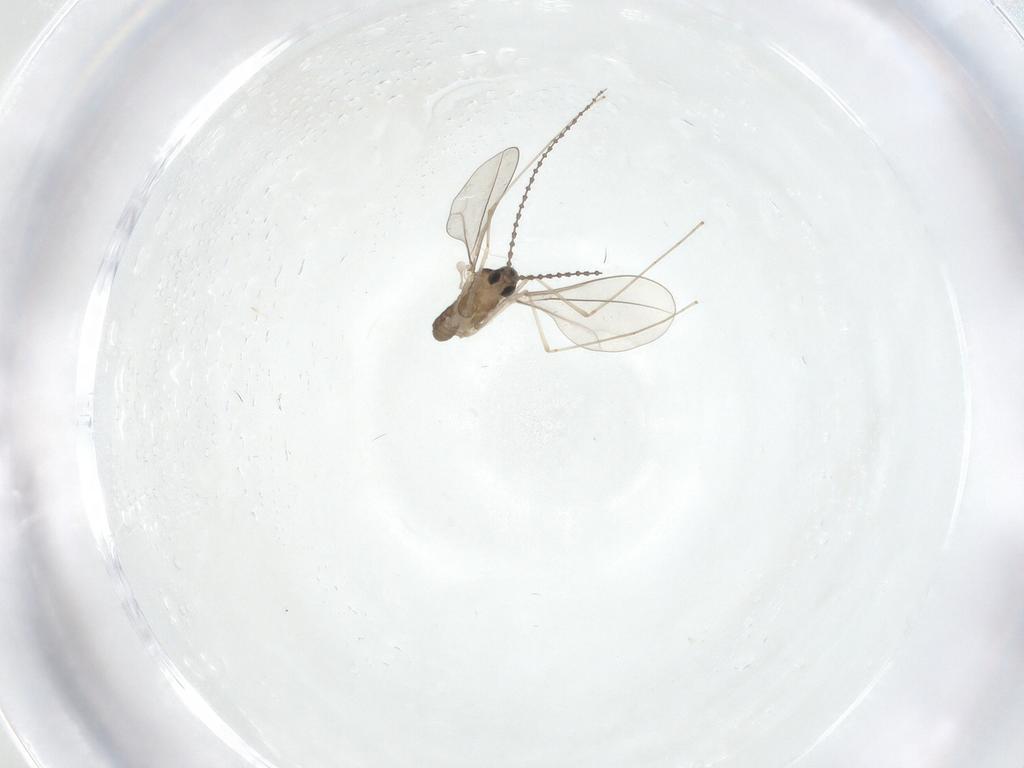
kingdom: Animalia
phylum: Arthropoda
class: Insecta
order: Diptera
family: Cecidomyiidae
